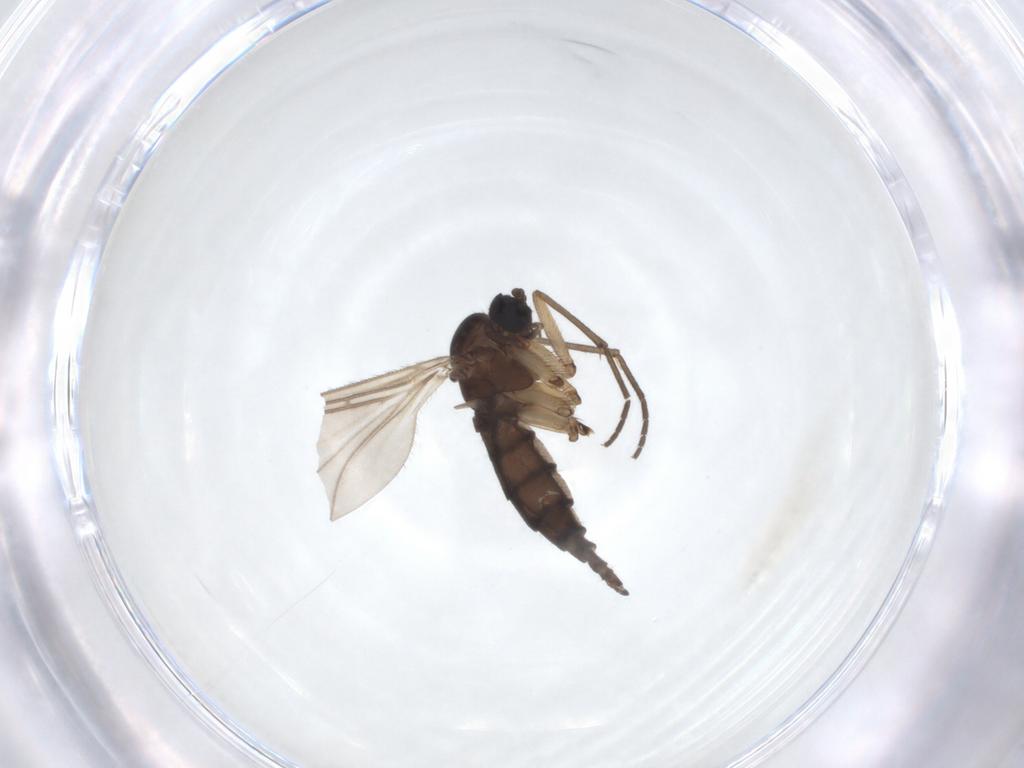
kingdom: Animalia
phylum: Arthropoda
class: Insecta
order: Diptera
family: Sciaridae
